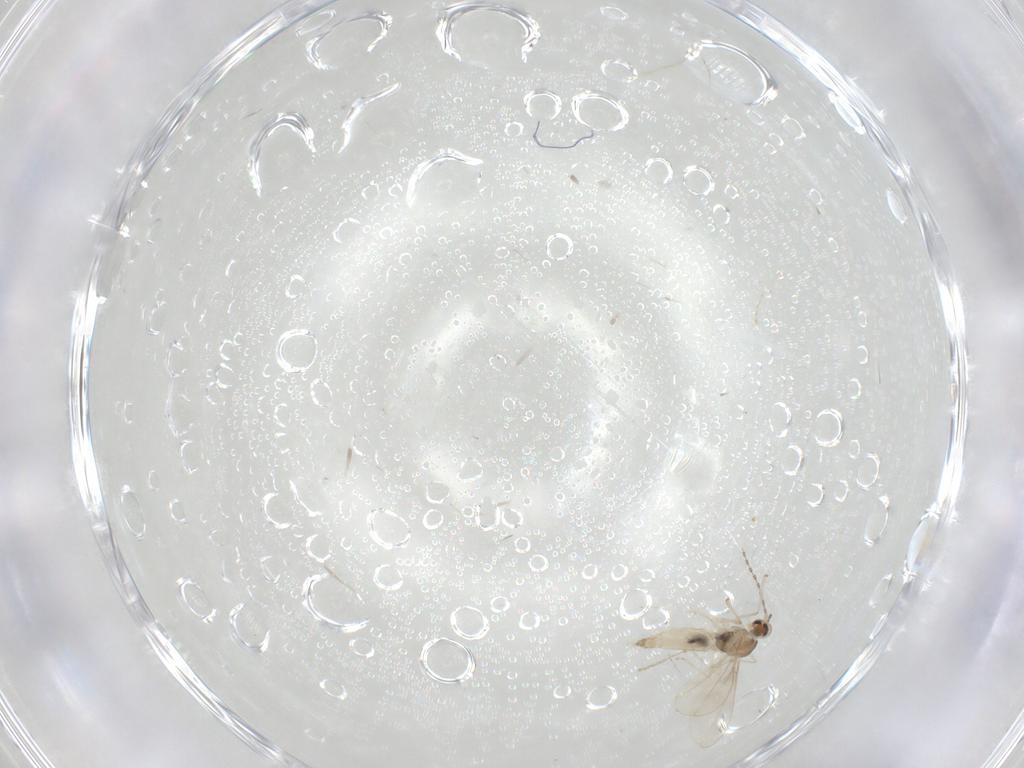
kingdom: Animalia
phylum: Arthropoda
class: Insecta
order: Diptera
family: Cecidomyiidae
